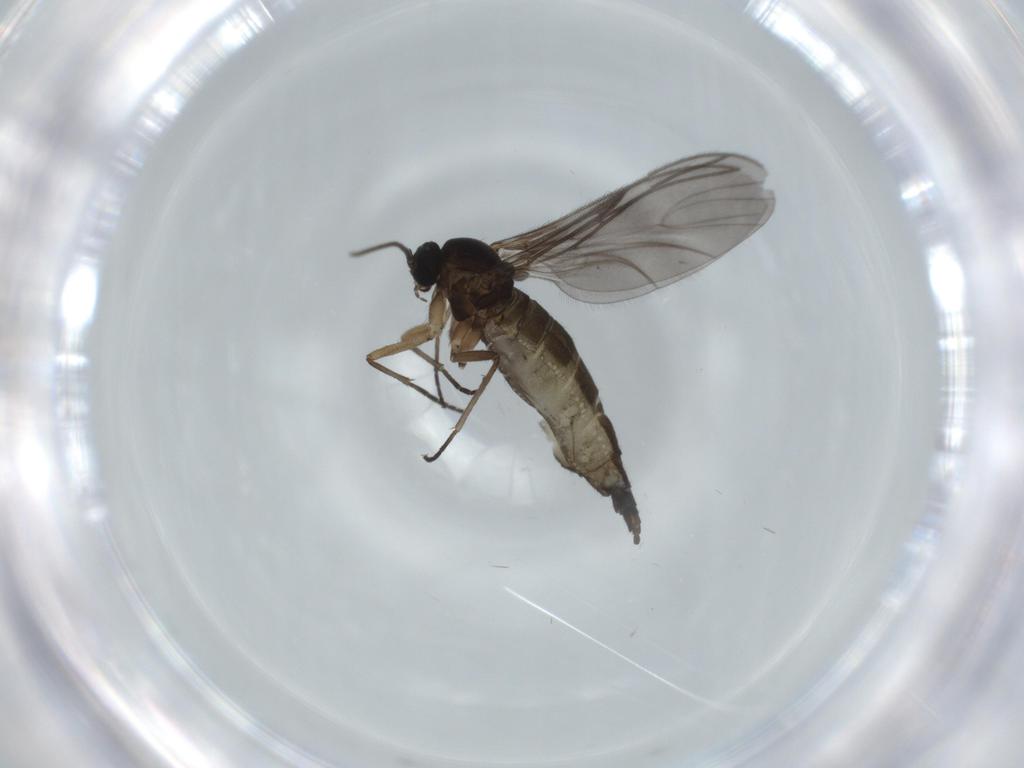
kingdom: Animalia
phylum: Arthropoda
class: Insecta
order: Diptera
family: Sciaridae
